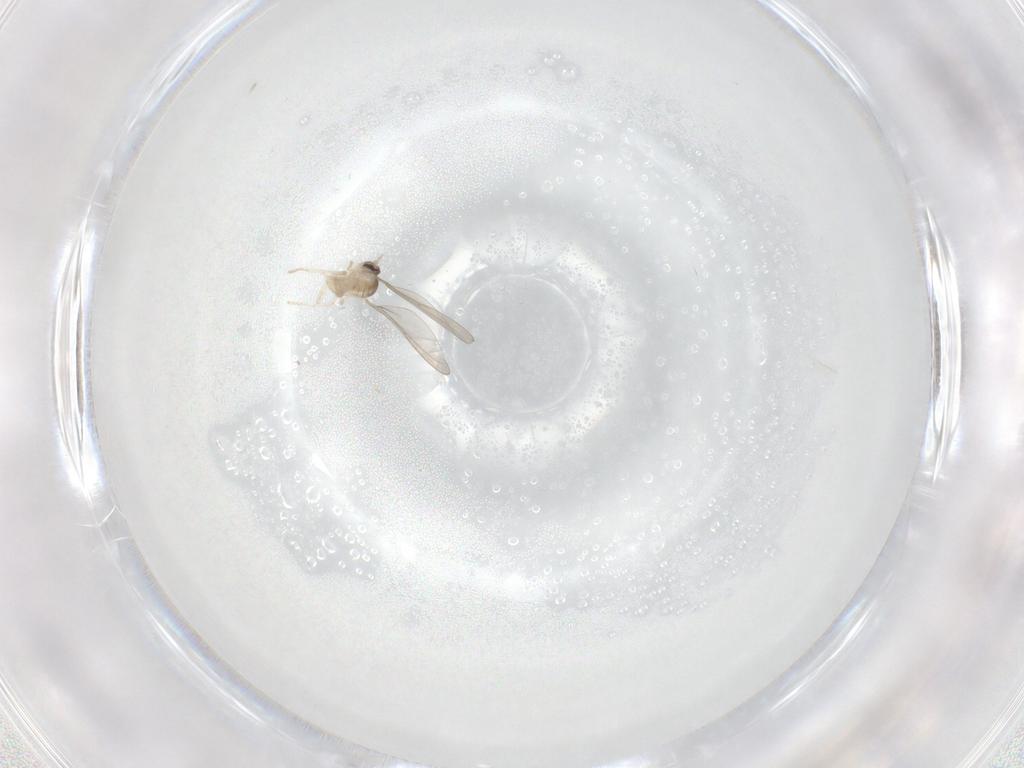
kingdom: Animalia
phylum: Arthropoda
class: Insecta
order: Diptera
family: Cecidomyiidae
